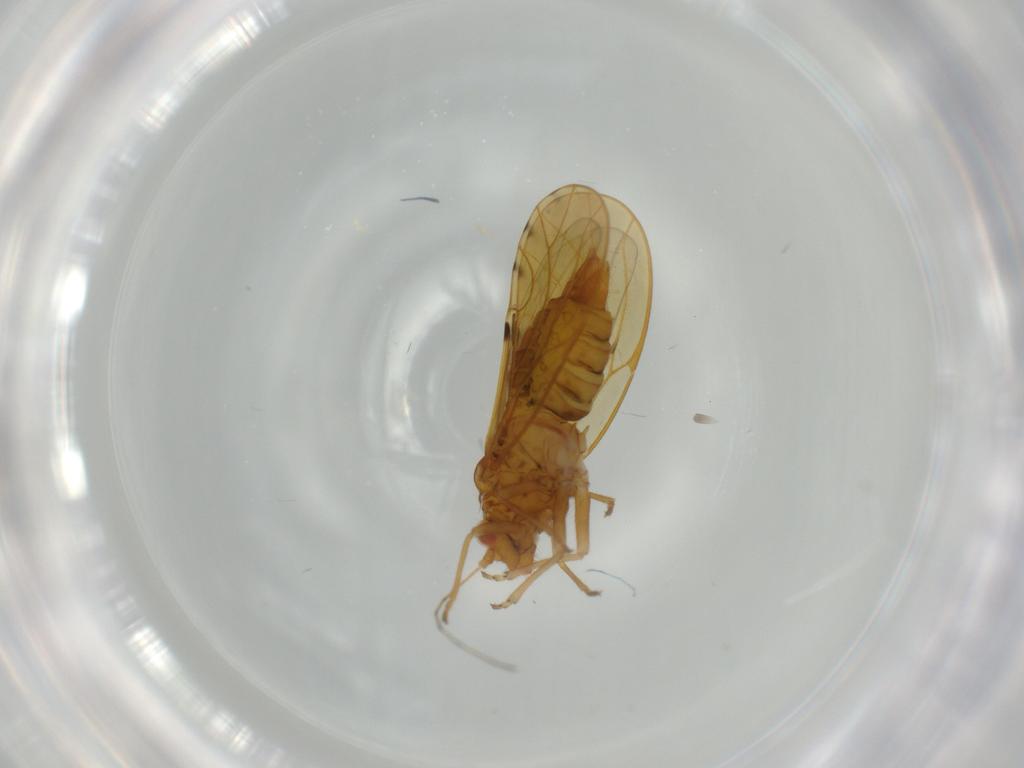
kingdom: Animalia
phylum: Arthropoda
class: Insecta
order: Hemiptera
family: Psylloidea_incertae_sedis
